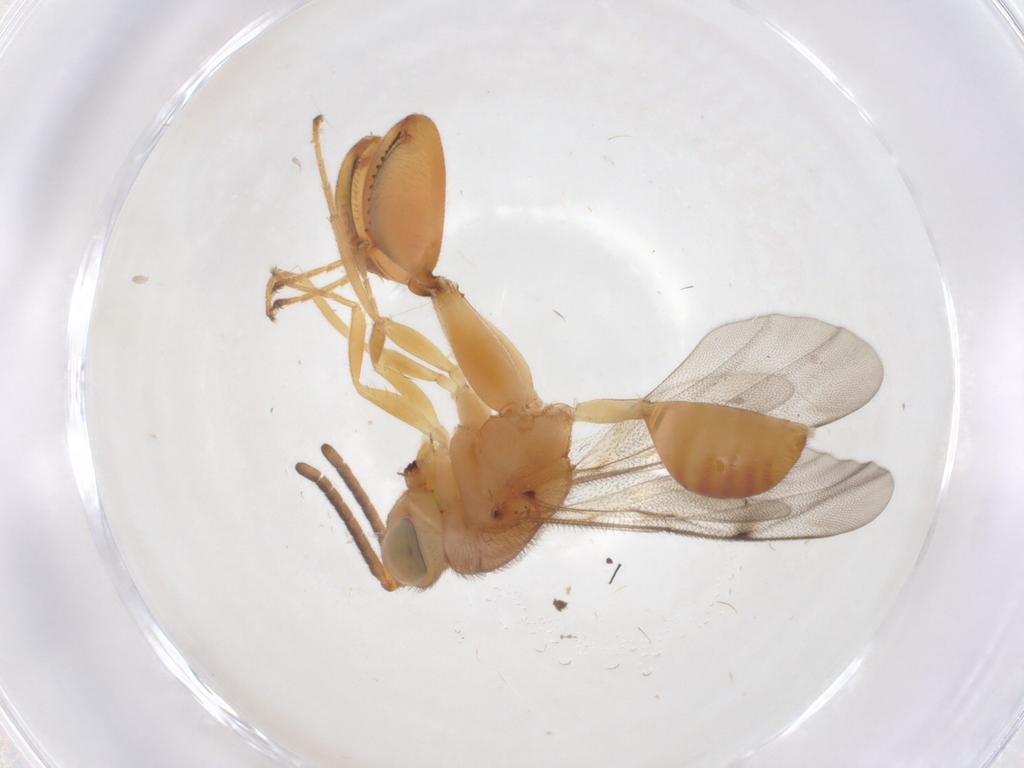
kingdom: Animalia
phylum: Arthropoda
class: Insecta
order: Hymenoptera
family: Chalcididae
